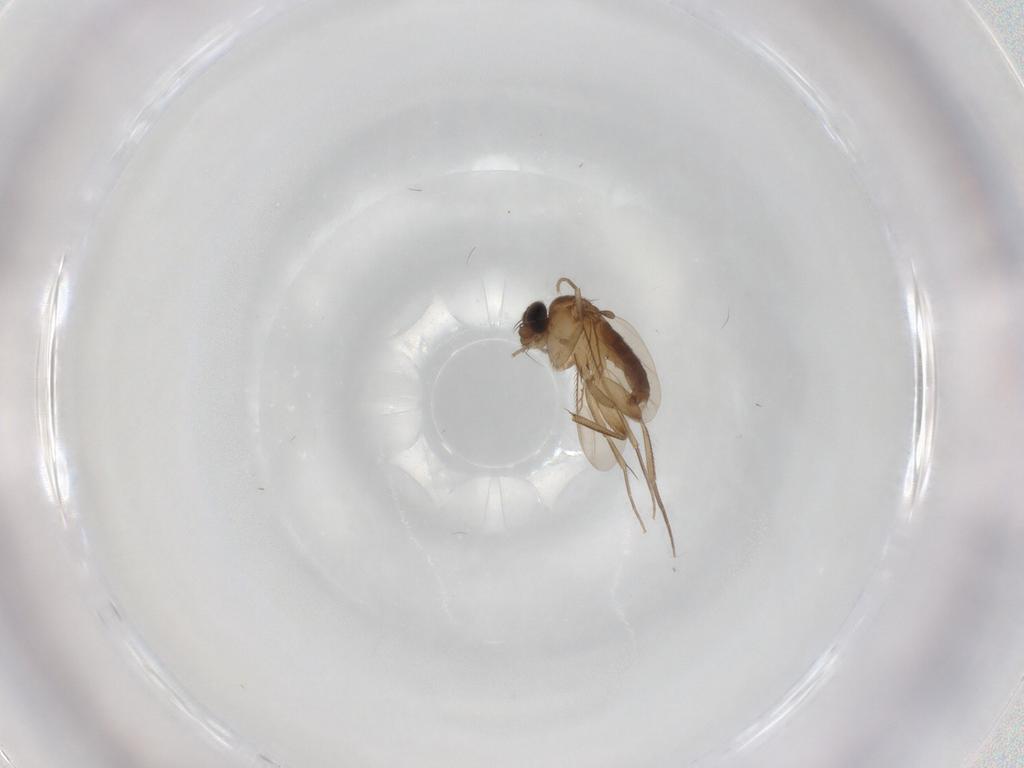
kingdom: Animalia
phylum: Arthropoda
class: Insecta
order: Diptera
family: Phoridae
